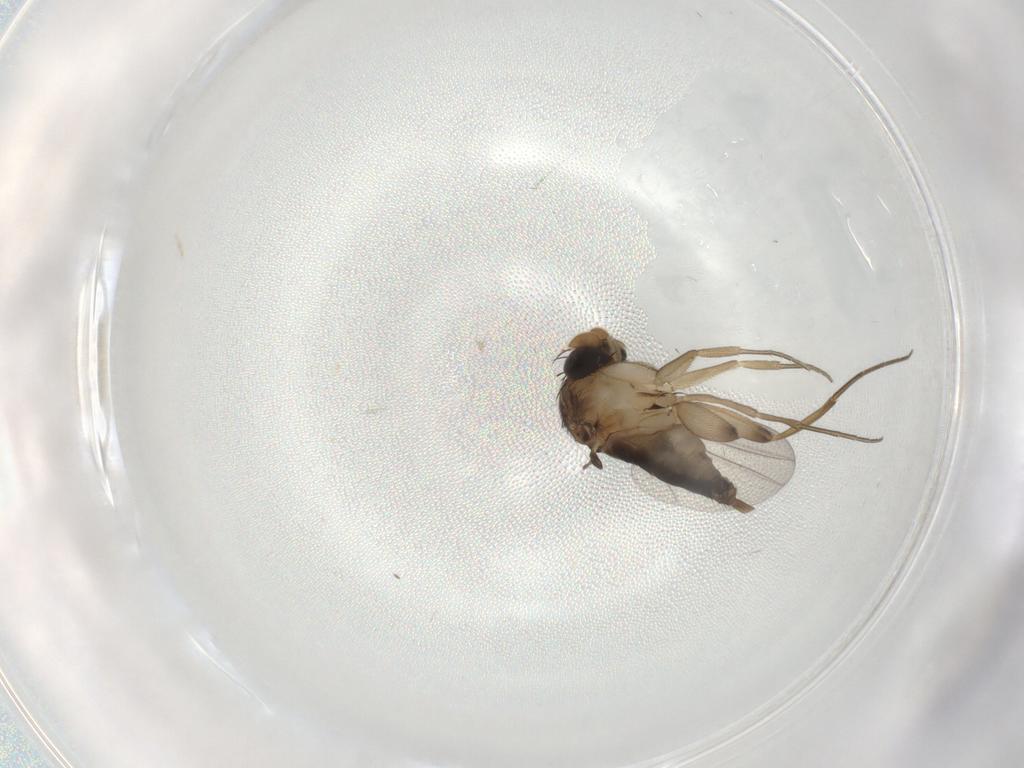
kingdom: Animalia
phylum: Arthropoda
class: Insecta
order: Diptera
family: Phoridae
